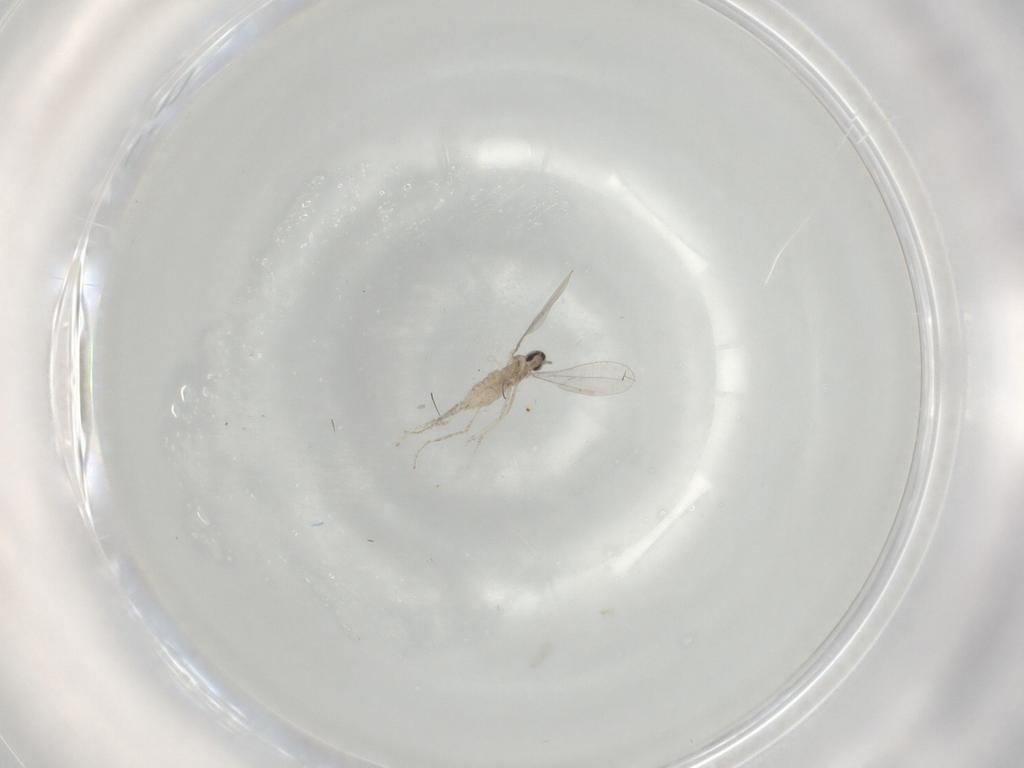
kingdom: Animalia
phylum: Arthropoda
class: Insecta
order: Diptera
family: Cecidomyiidae
